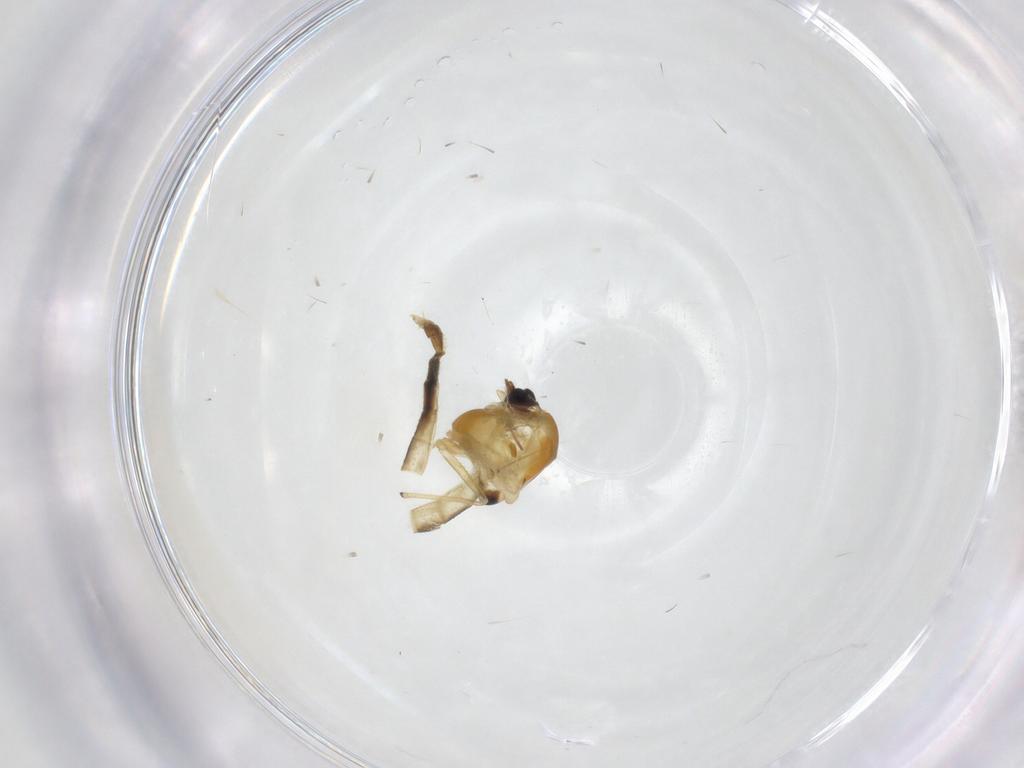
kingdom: Animalia
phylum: Arthropoda
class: Insecta
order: Diptera
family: Chironomidae
